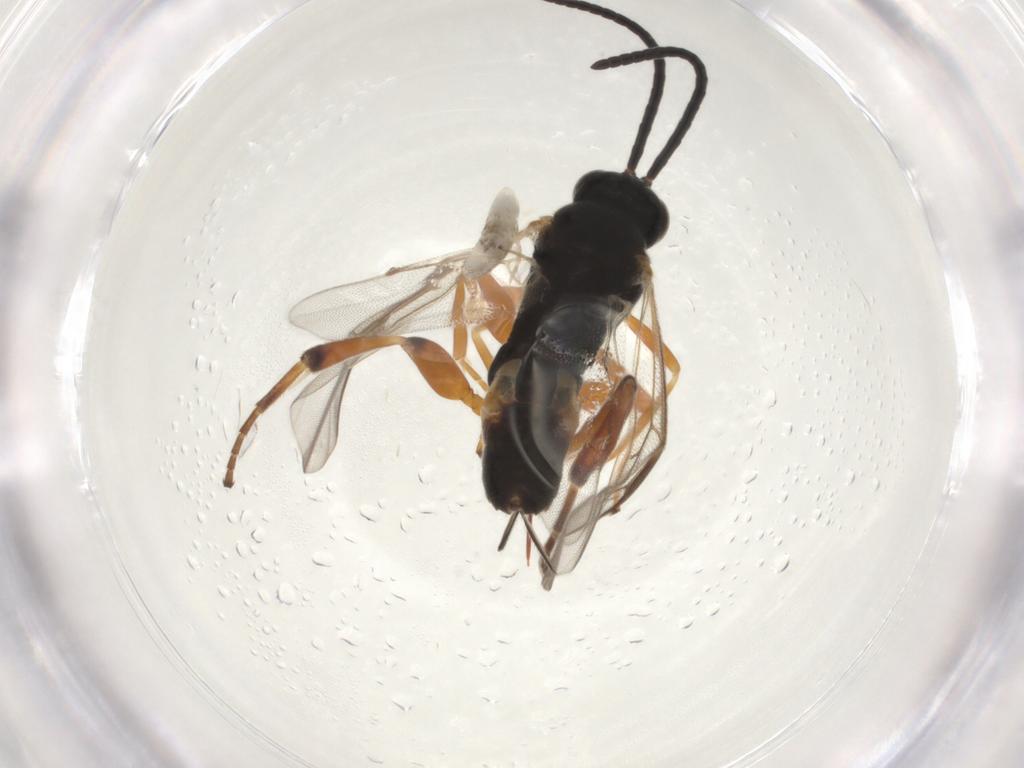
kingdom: Animalia
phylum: Arthropoda
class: Insecta
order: Hymenoptera
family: Braconidae
